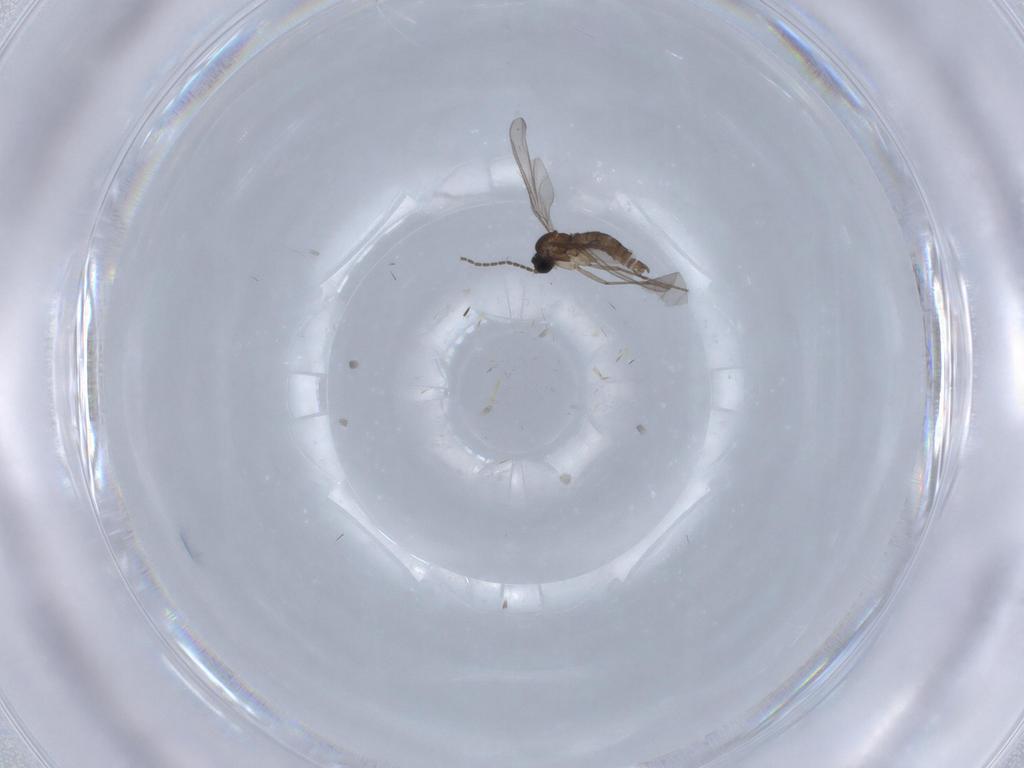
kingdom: Animalia
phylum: Arthropoda
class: Insecta
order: Diptera
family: Sciaridae
